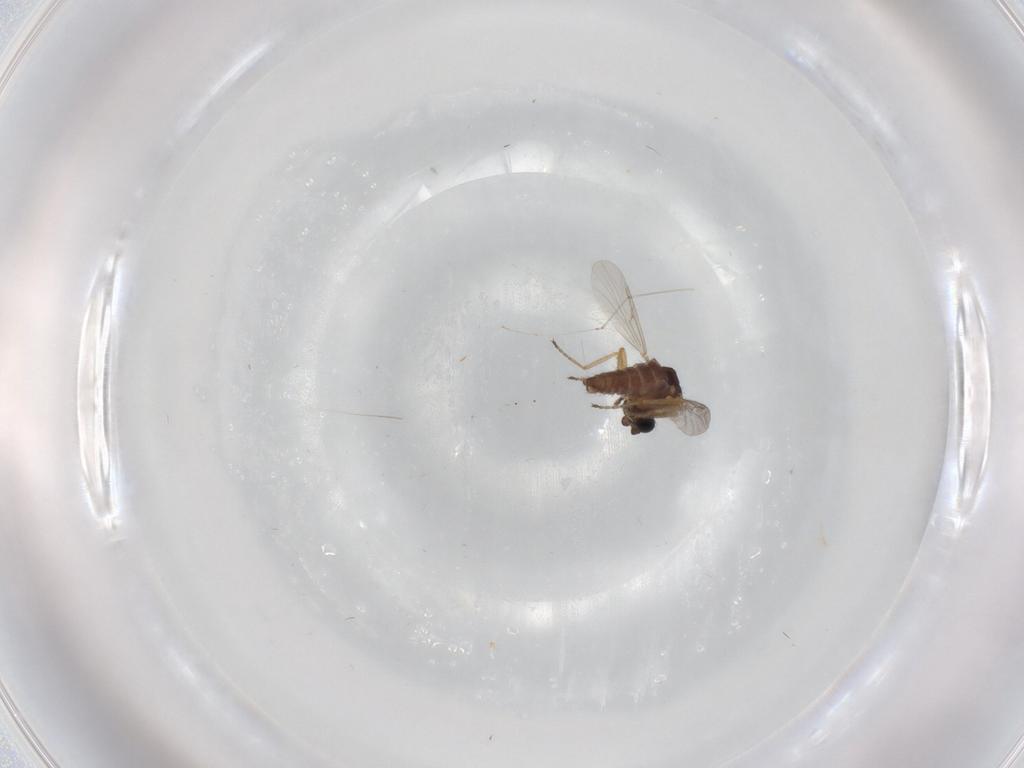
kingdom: Animalia
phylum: Arthropoda
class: Insecta
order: Diptera
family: Ceratopogonidae
